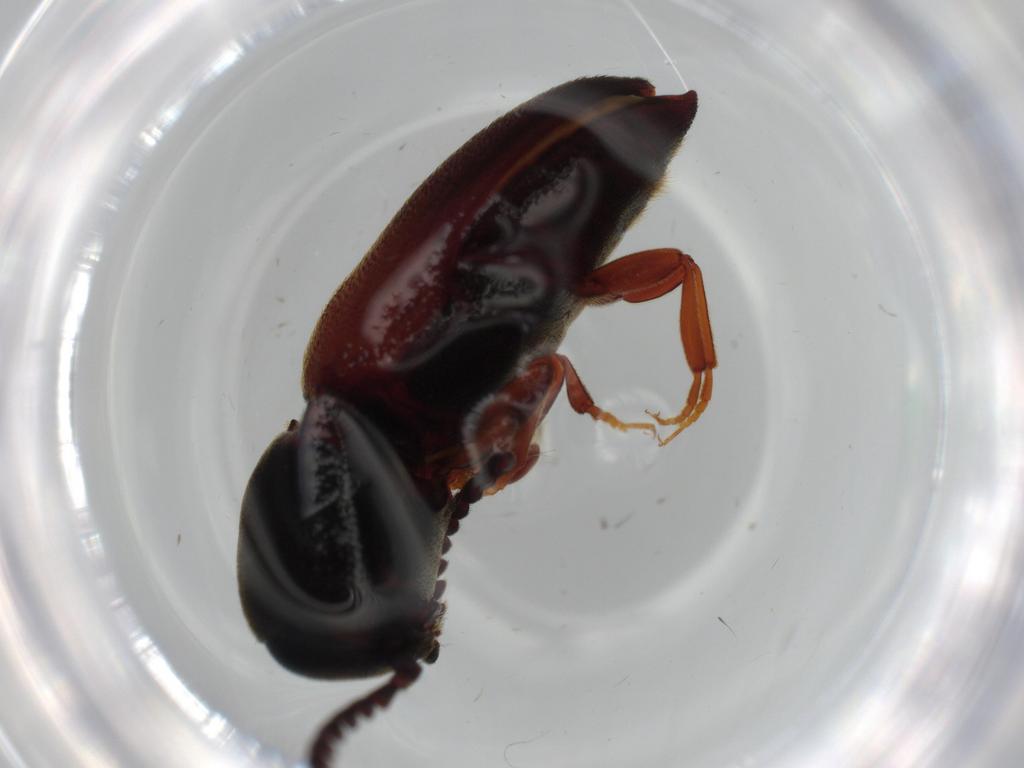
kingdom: Animalia
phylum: Arthropoda
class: Insecta
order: Coleoptera
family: Eucnemidae
